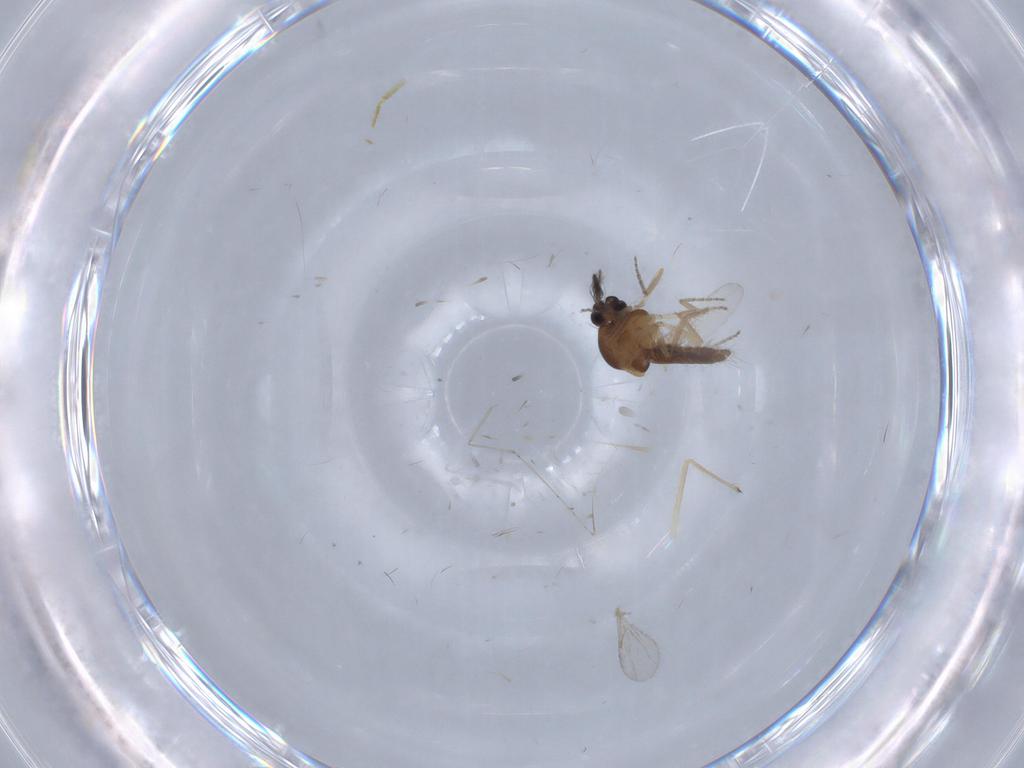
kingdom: Animalia
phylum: Arthropoda
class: Insecta
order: Diptera
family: Ceratopogonidae
